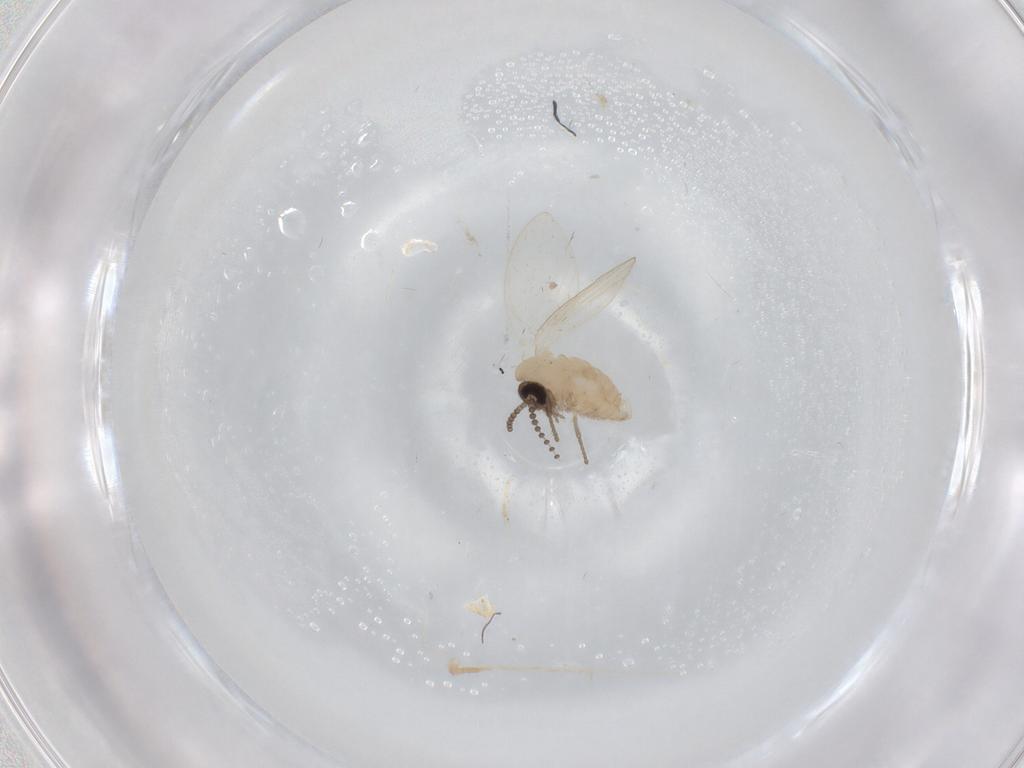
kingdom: Animalia
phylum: Arthropoda
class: Insecta
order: Diptera
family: Psychodidae
